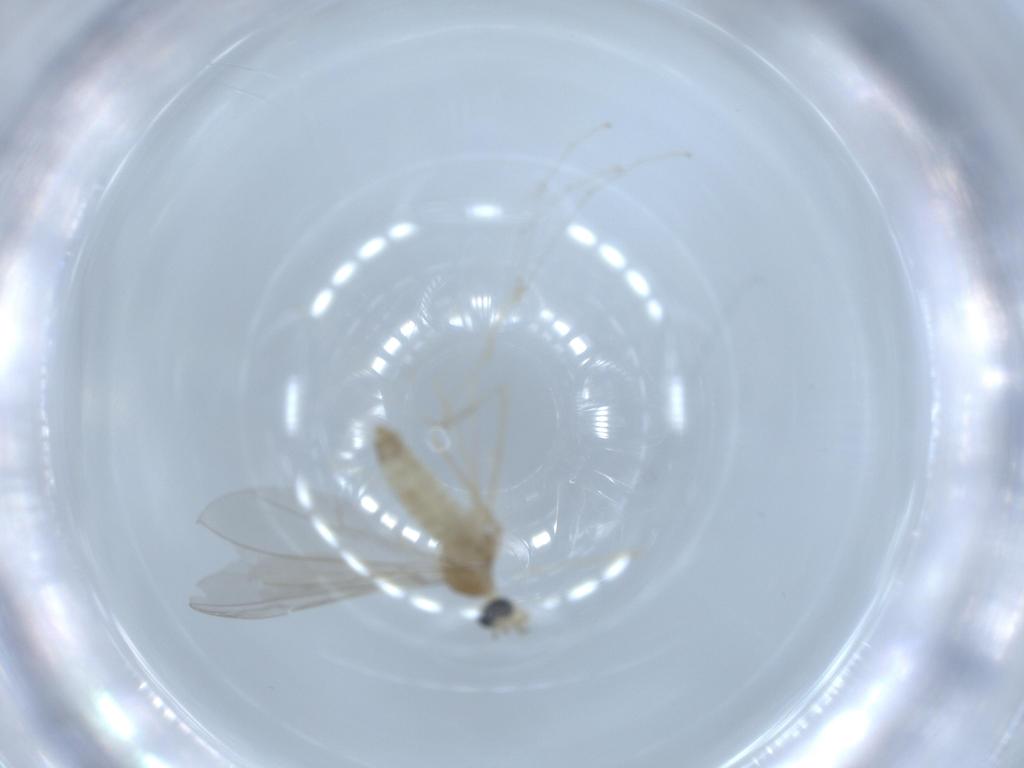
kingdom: Animalia
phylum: Arthropoda
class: Insecta
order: Diptera
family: Cecidomyiidae
